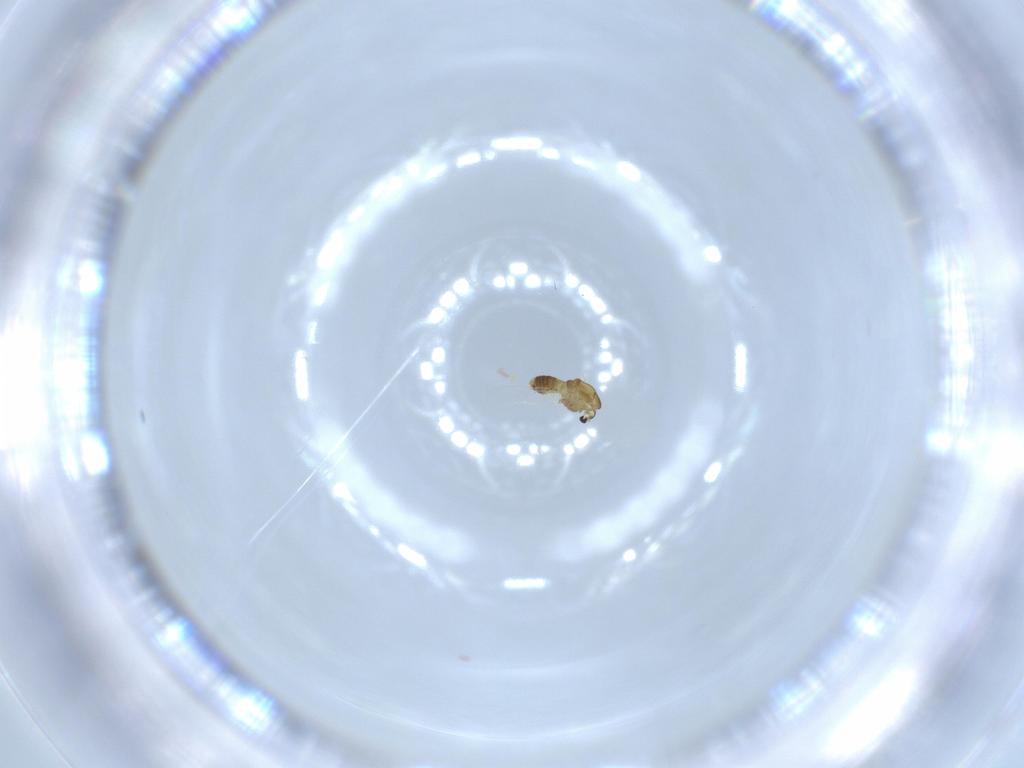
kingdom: Animalia
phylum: Arthropoda
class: Insecta
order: Diptera
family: Chironomidae
